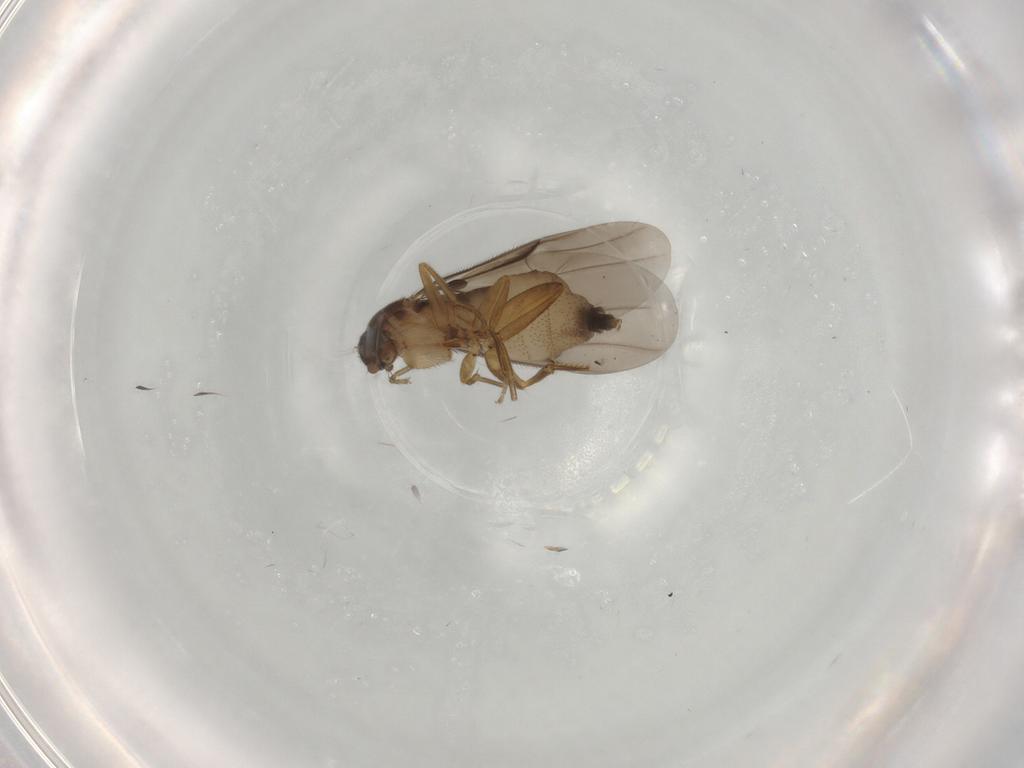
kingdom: Animalia
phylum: Arthropoda
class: Insecta
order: Diptera
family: Phoridae
